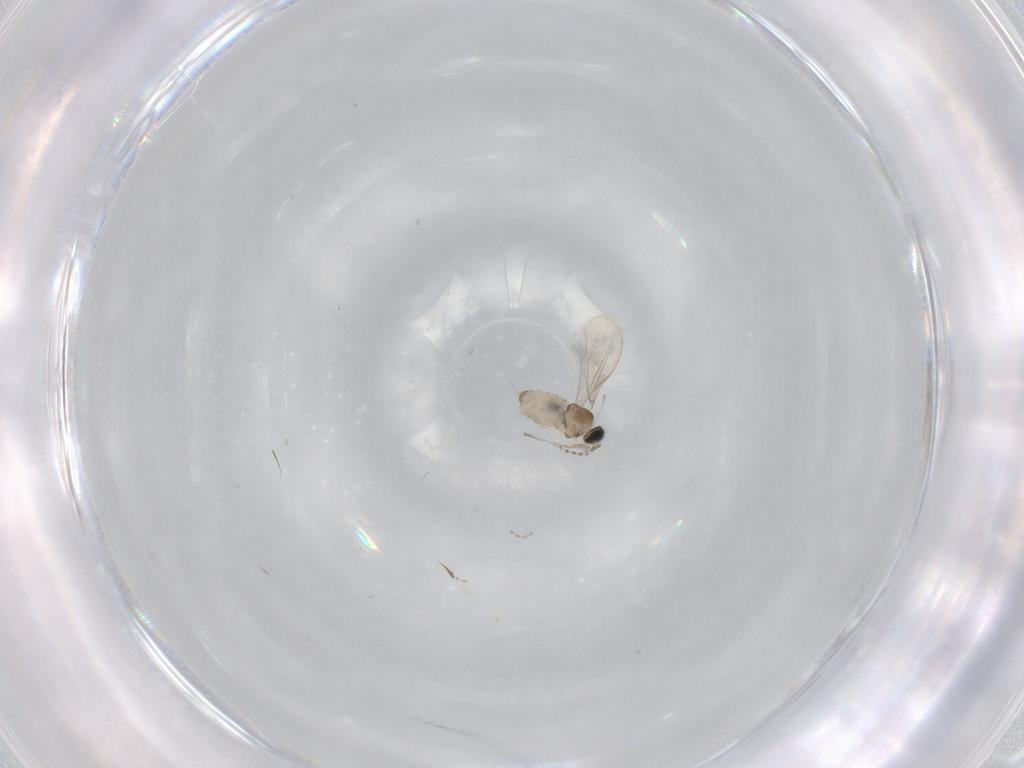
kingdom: Animalia
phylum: Arthropoda
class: Insecta
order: Diptera
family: Cecidomyiidae
